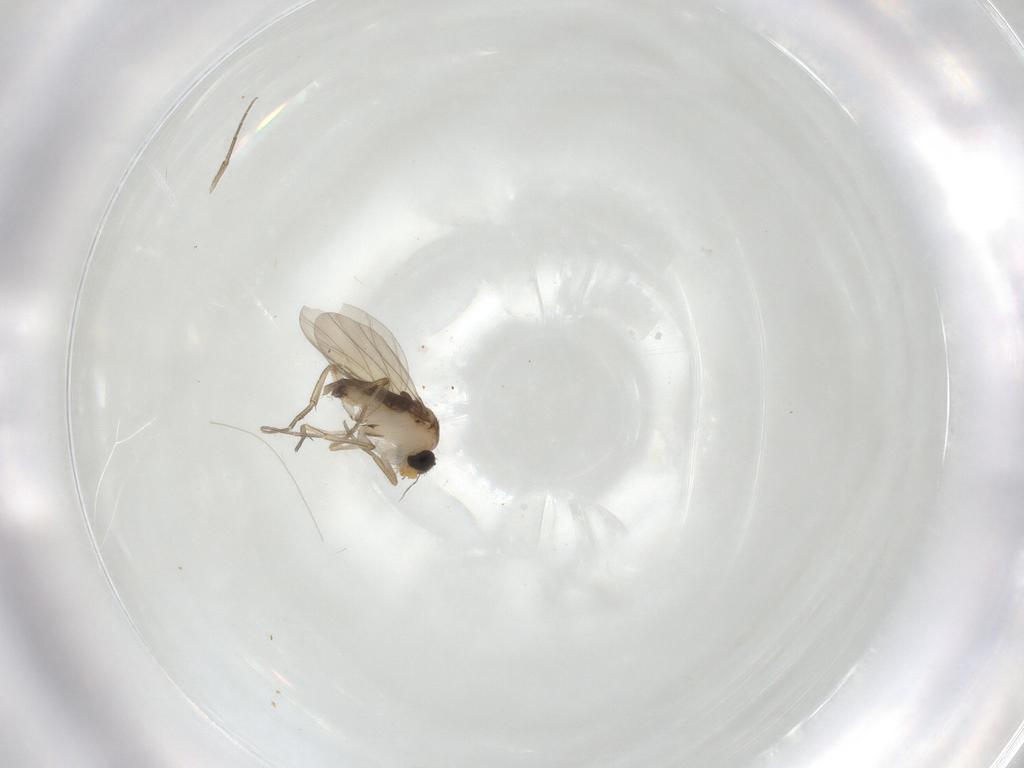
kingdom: Animalia
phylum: Arthropoda
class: Insecta
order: Diptera
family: Phoridae
